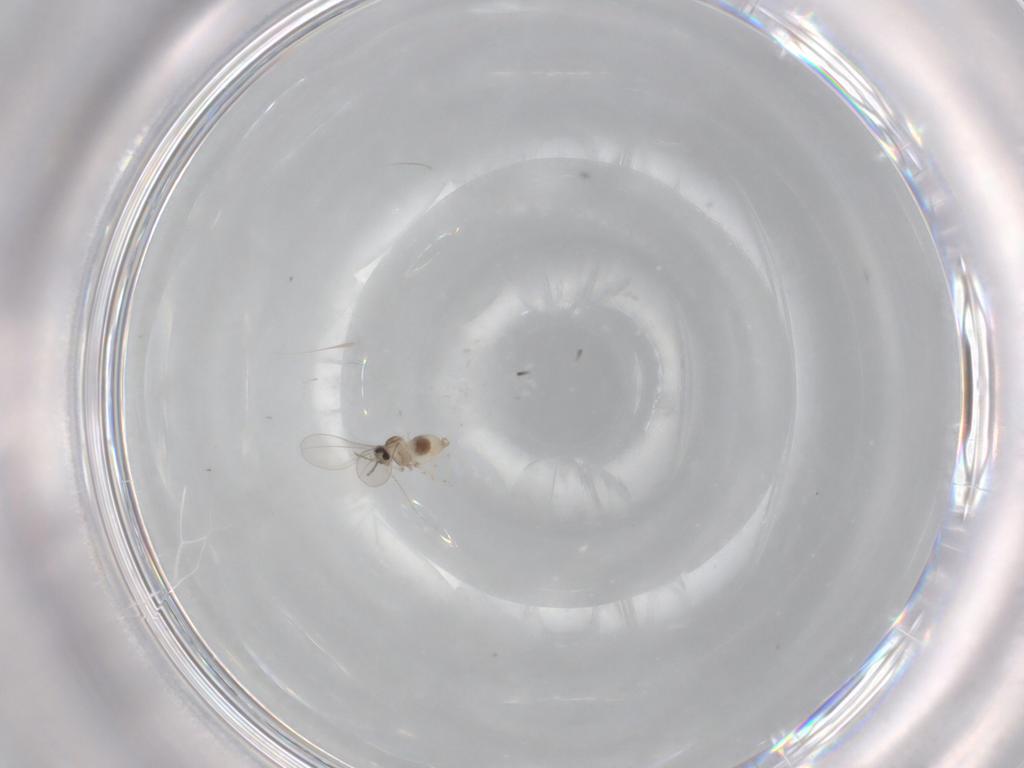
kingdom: Animalia
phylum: Arthropoda
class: Insecta
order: Diptera
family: Cecidomyiidae
